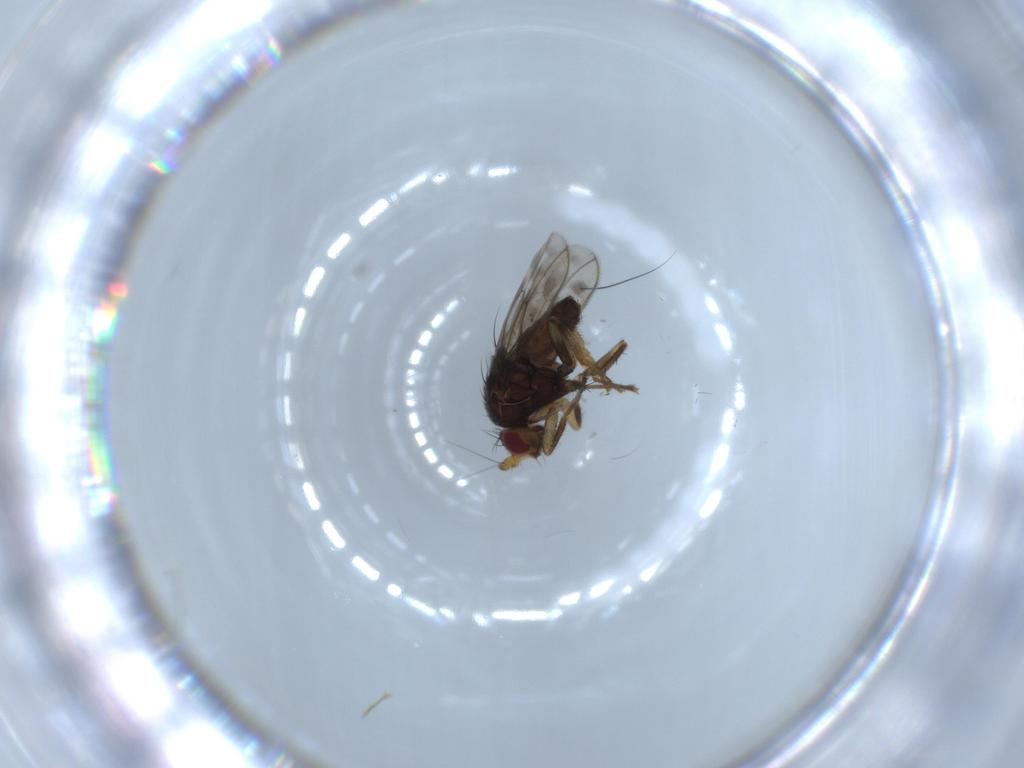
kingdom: Animalia
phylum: Arthropoda
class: Insecta
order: Diptera
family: Sphaeroceridae
